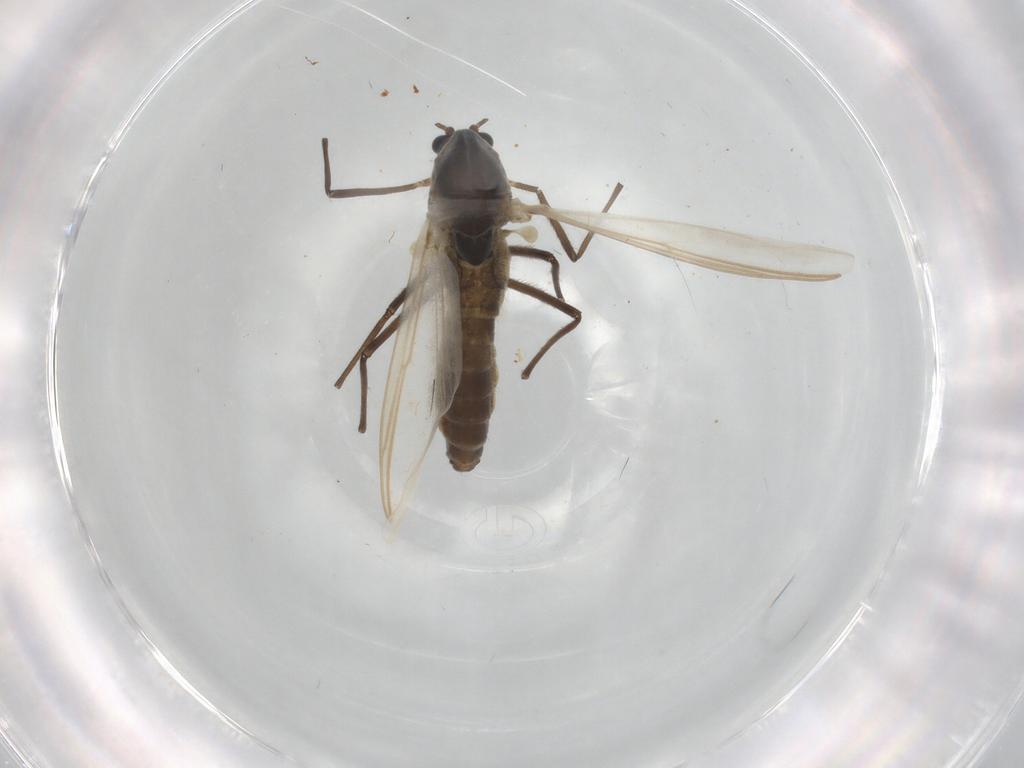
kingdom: Animalia
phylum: Arthropoda
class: Insecta
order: Diptera
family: Chironomidae
